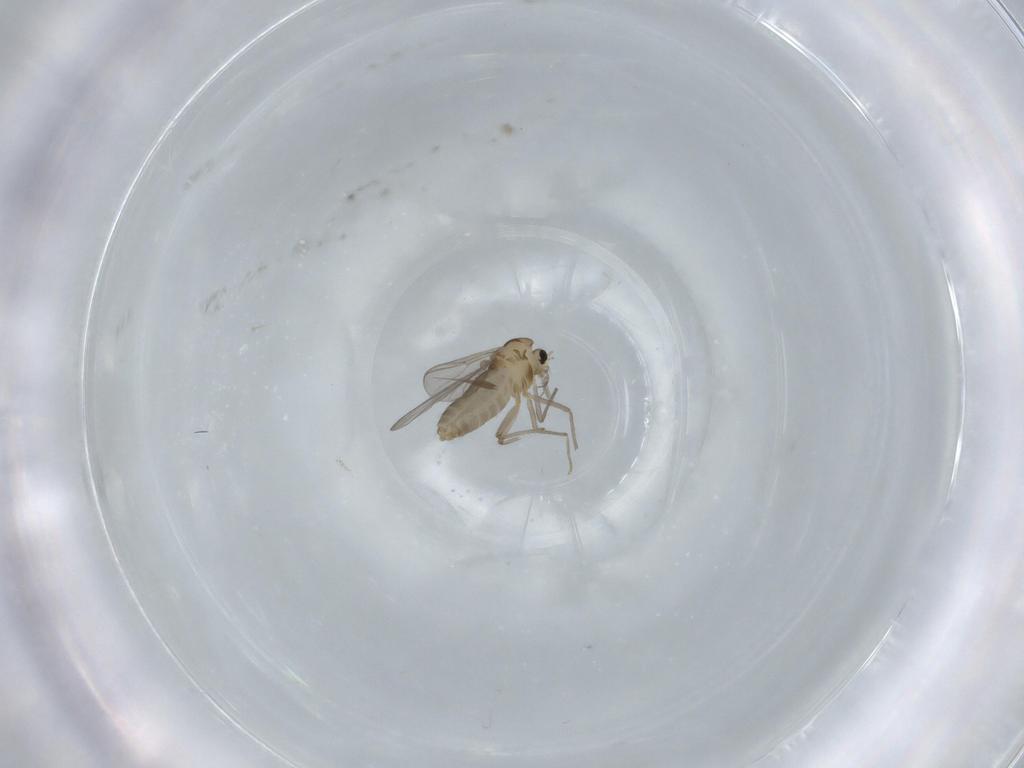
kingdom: Animalia
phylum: Arthropoda
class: Insecta
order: Diptera
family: Chironomidae
